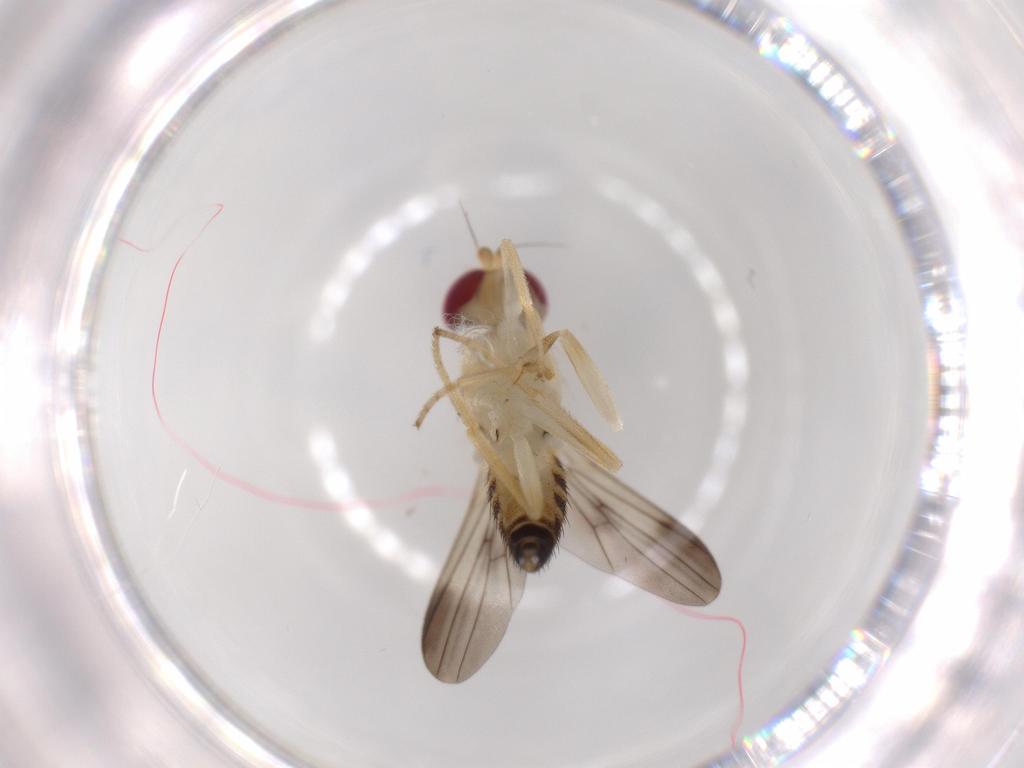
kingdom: Animalia
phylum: Arthropoda
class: Insecta
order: Diptera
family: Clusiidae
